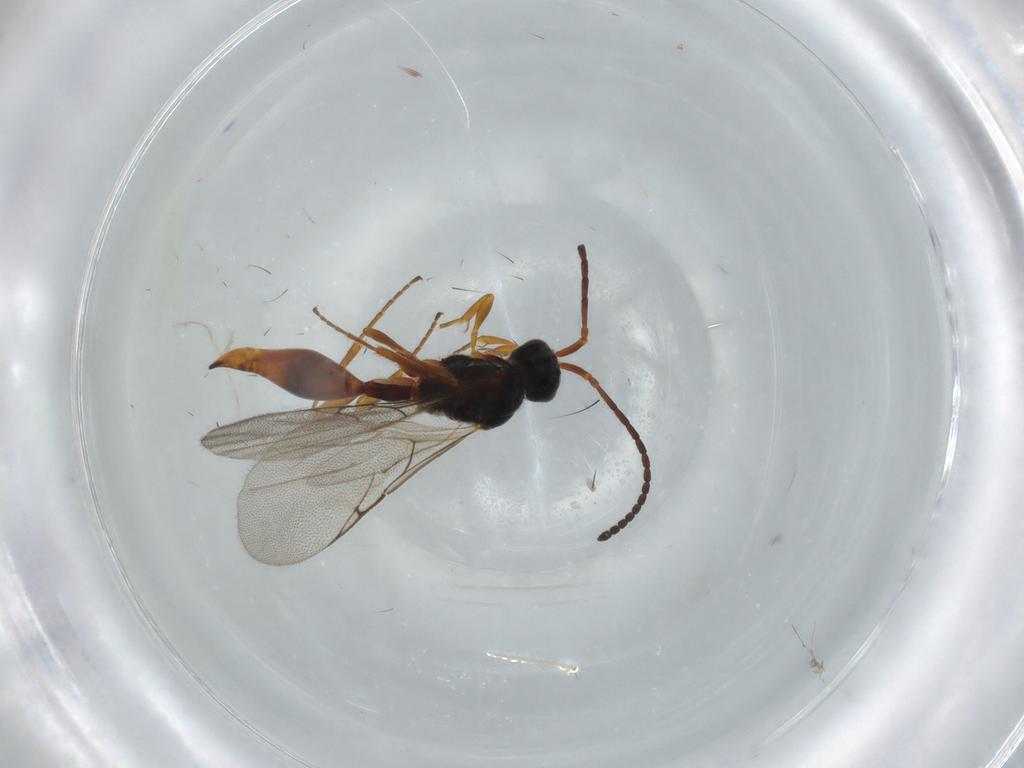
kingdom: Animalia
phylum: Arthropoda
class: Insecta
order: Hymenoptera
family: Diapriidae
